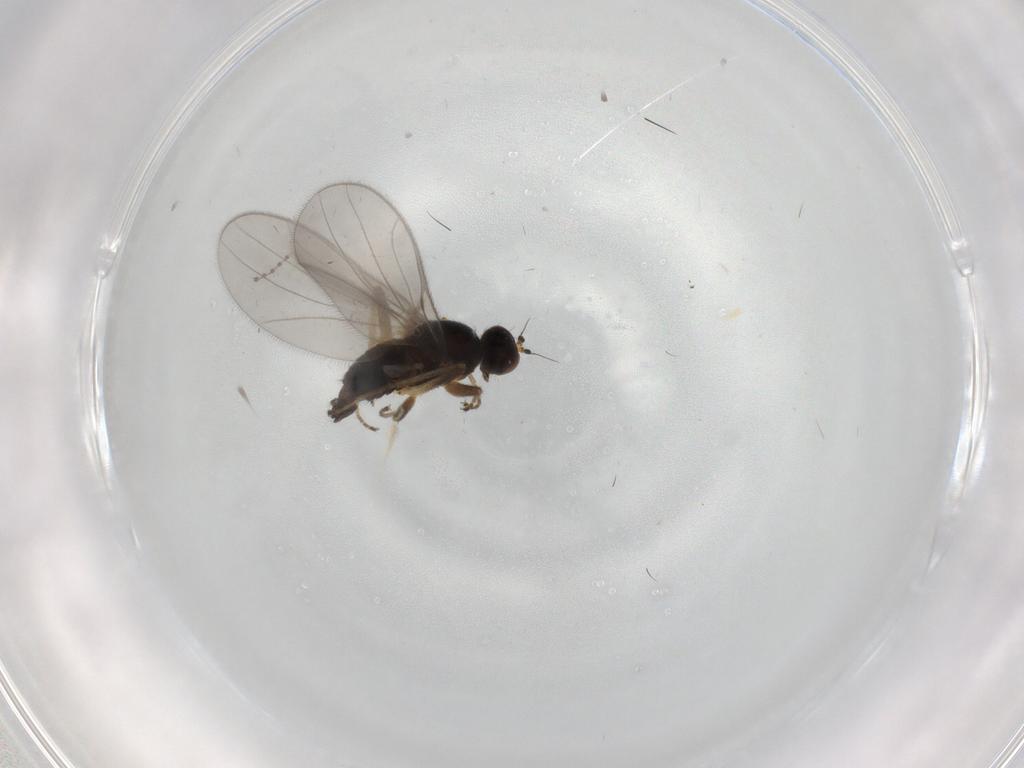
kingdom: Animalia
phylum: Arthropoda
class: Insecta
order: Diptera
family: Hybotidae
